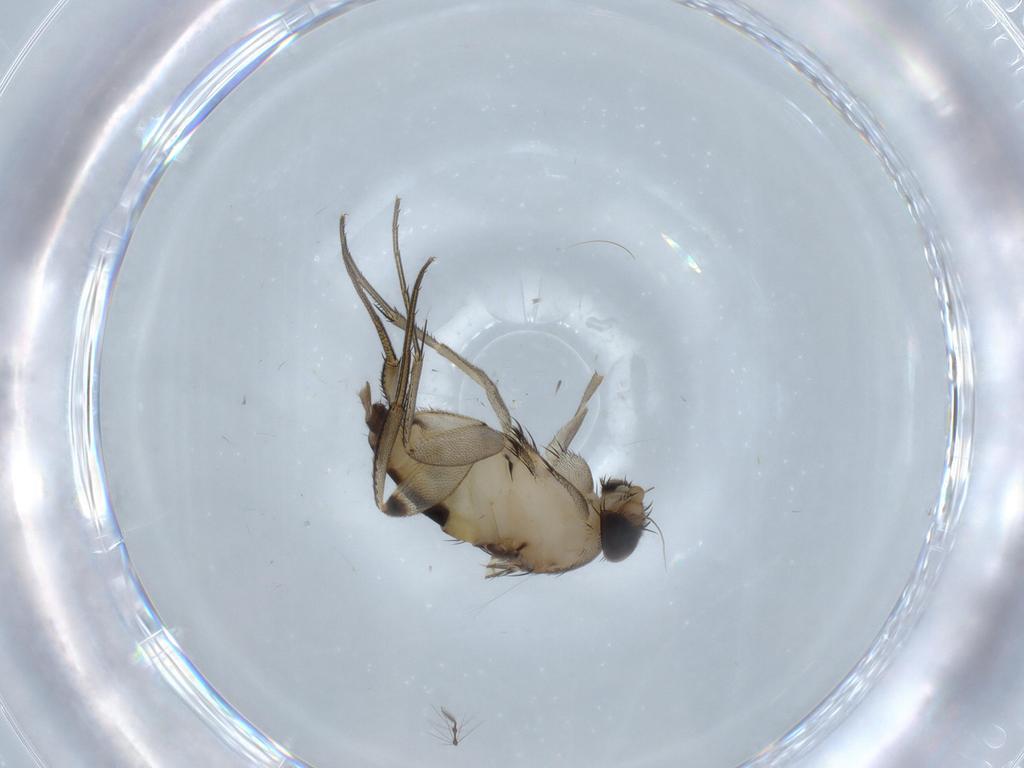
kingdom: Animalia
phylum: Arthropoda
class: Insecta
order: Diptera
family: Phoridae
